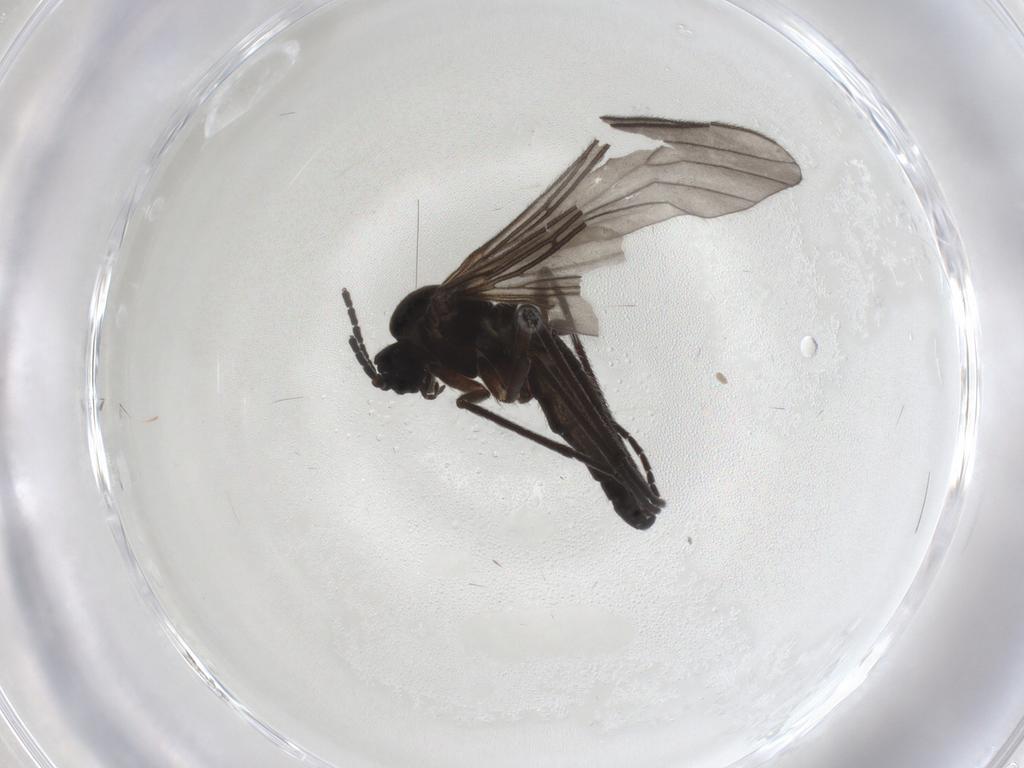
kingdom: Animalia
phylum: Arthropoda
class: Insecta
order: Diptera
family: Sciaridae
